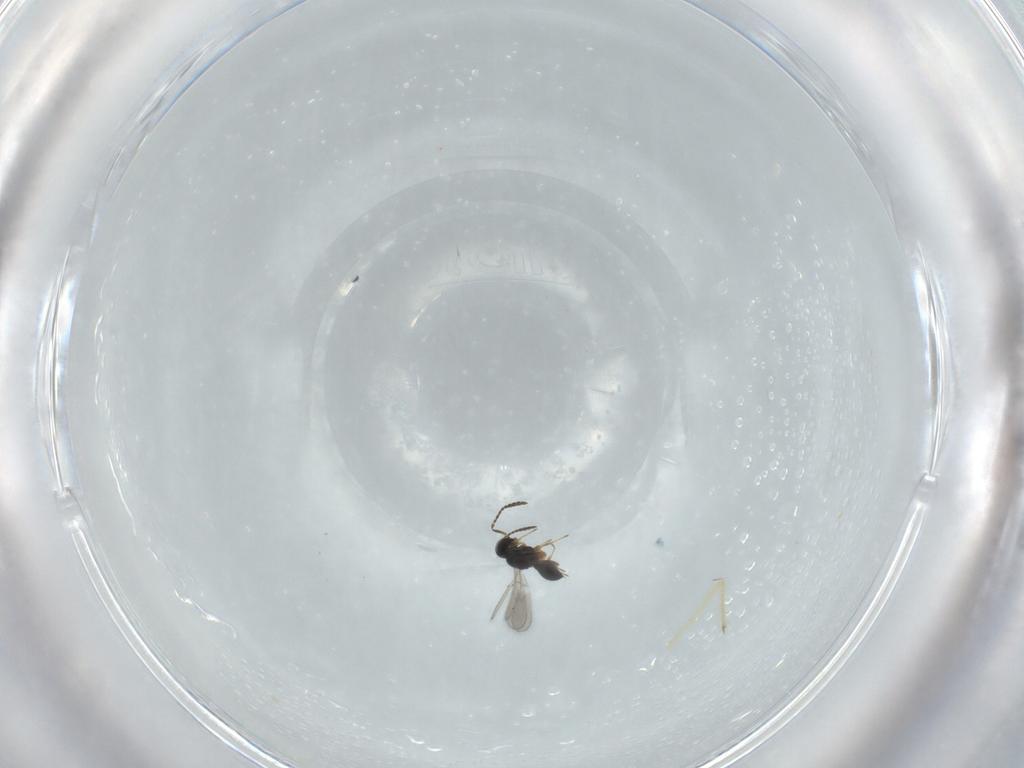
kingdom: Animalia
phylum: Arthropoda
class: Insecta
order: Hymenoptera
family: Scelionidae
